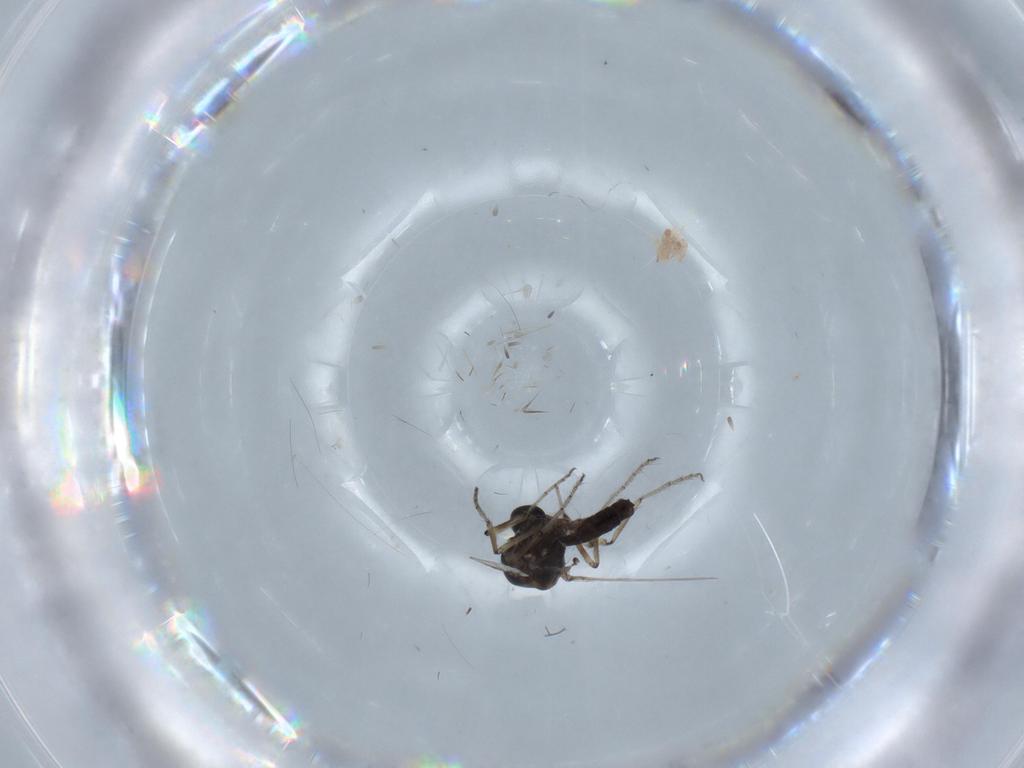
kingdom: Animalia
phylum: Arthropoda
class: Insecta
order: Diptera
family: Ceratopogonidae
